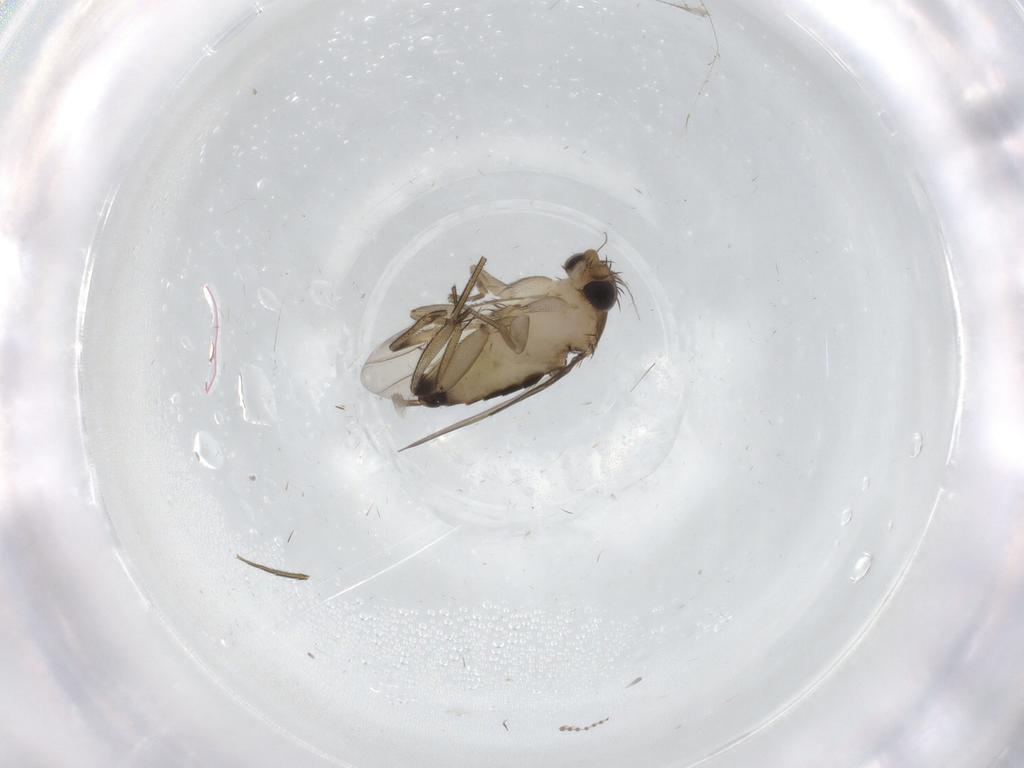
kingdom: Animalia
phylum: Arthropoda
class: Insecta
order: Diptera
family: Phoridae
